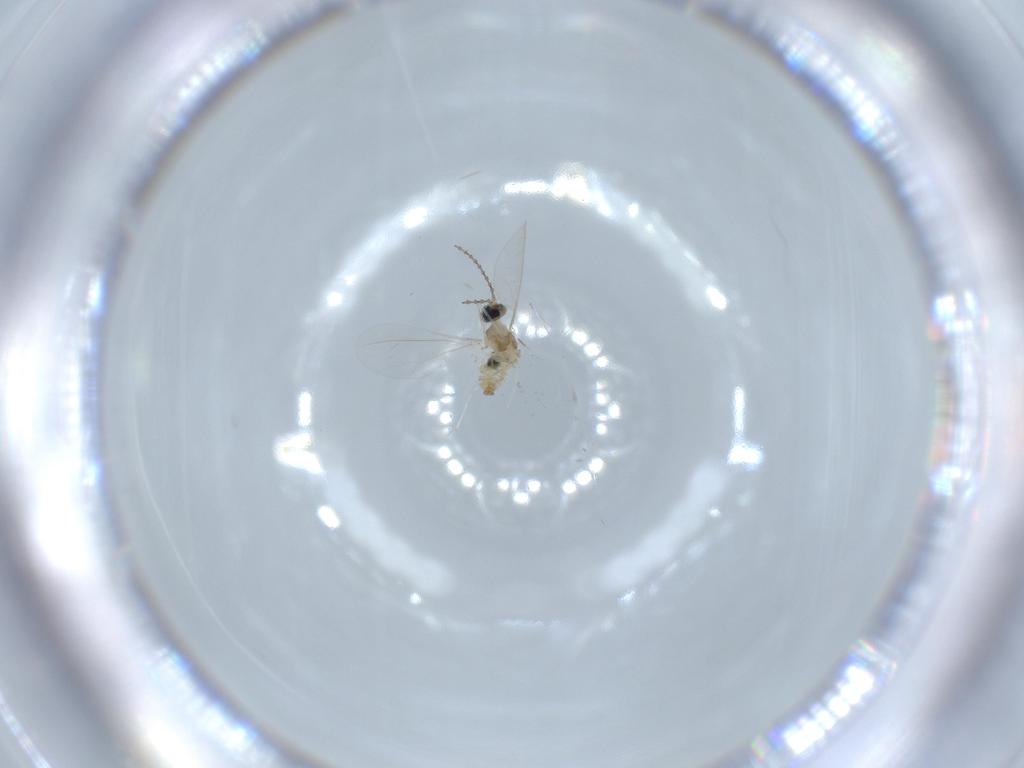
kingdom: Animalia
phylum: Arthropoda
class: Insecta
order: Diptera
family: Cecidomyiidae
